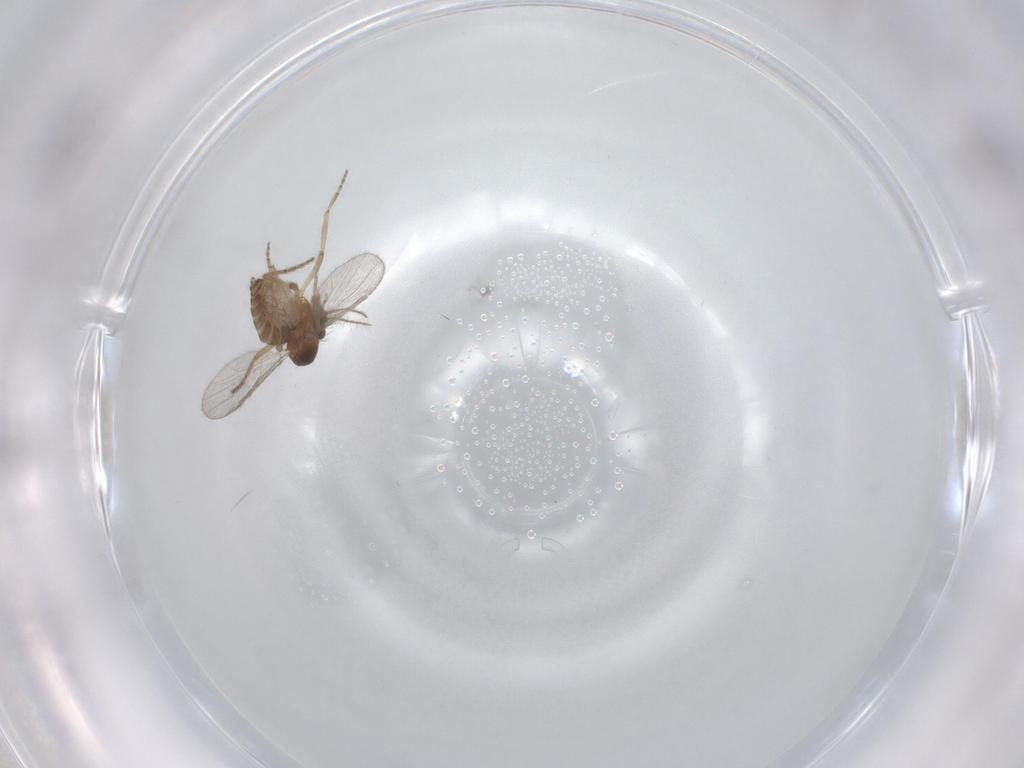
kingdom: Animalia
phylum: Arthropoda
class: Insecta
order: Diptera
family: Ceratopogonidae
